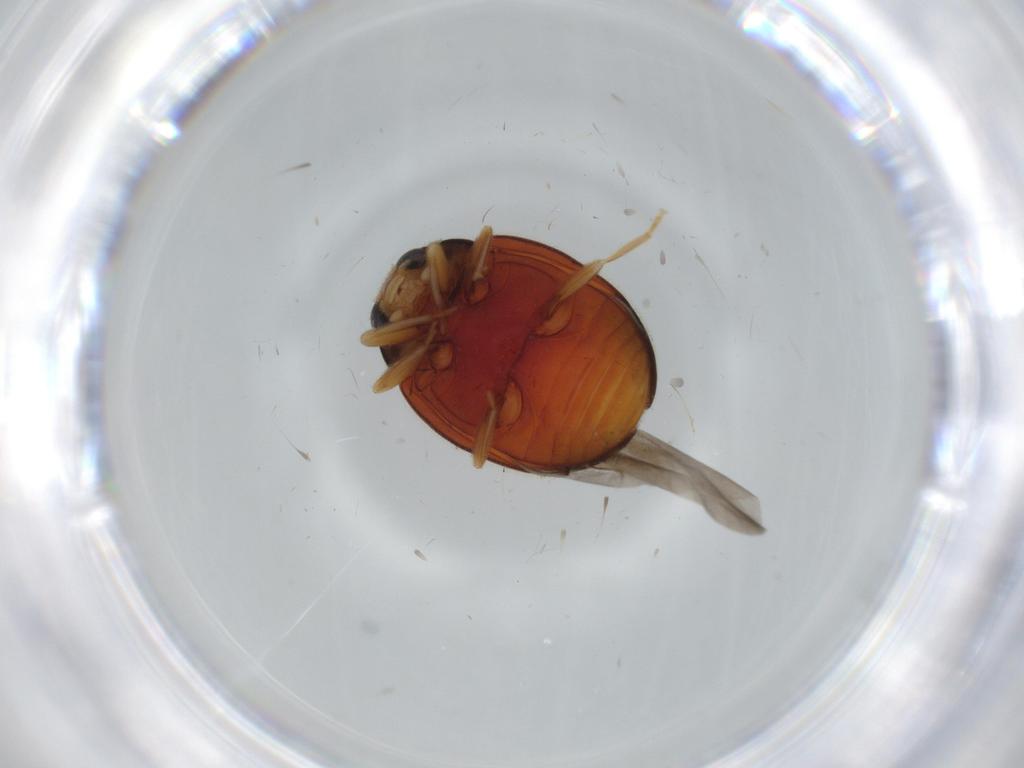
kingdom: Animalia
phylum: Arthropoda
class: Insecta
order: Coleoptera
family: Coccinellidae
